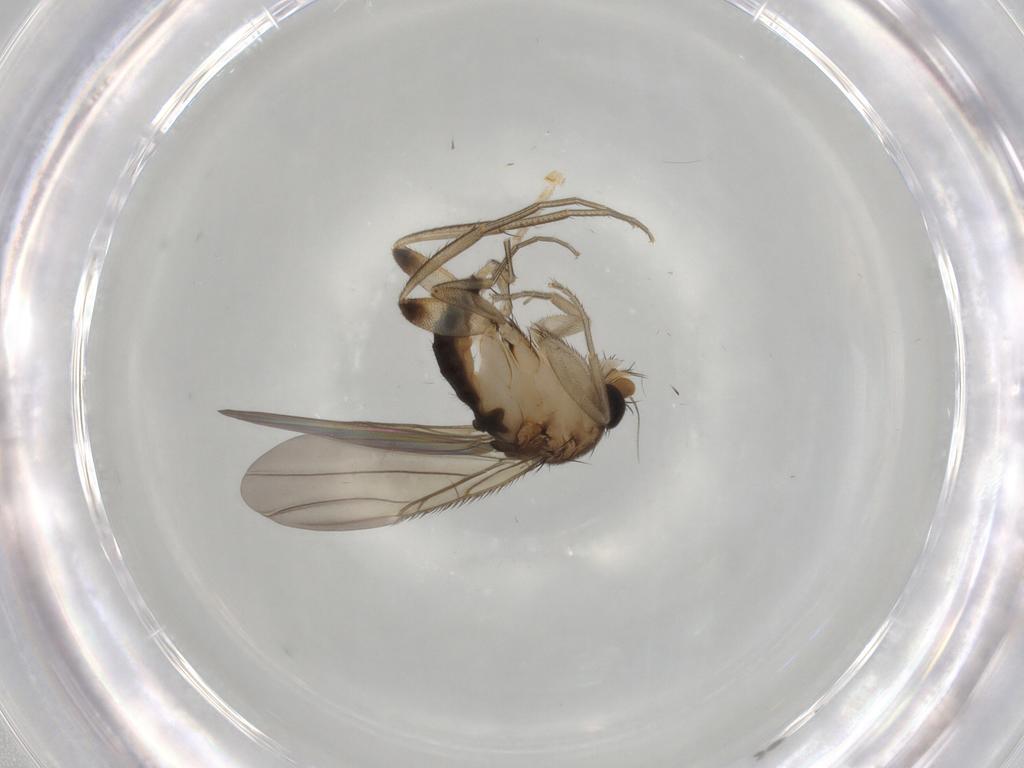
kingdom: Animalia
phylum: Arthropoda
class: Insecta
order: Diptera
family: Phoridae
